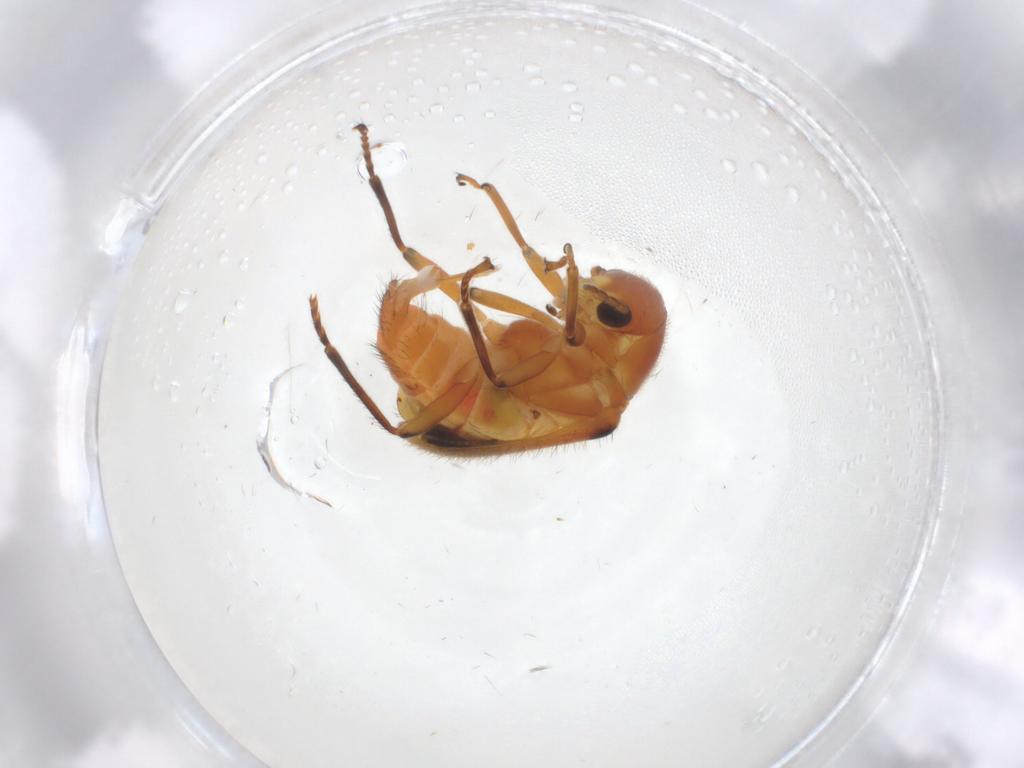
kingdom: Animalia
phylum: Arthropoda
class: Insecta
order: Coleoptera
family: Melyridae
